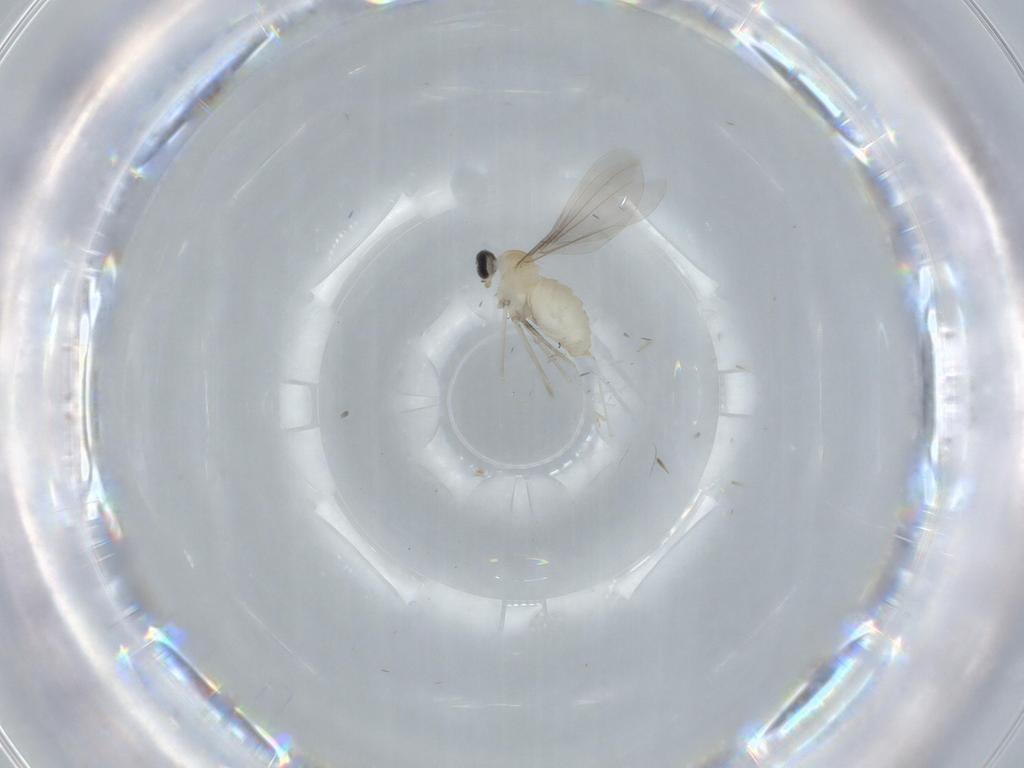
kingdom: Animalia
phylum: Arthropoda
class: Insecta
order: Diptera
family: Cecidomyiidae
